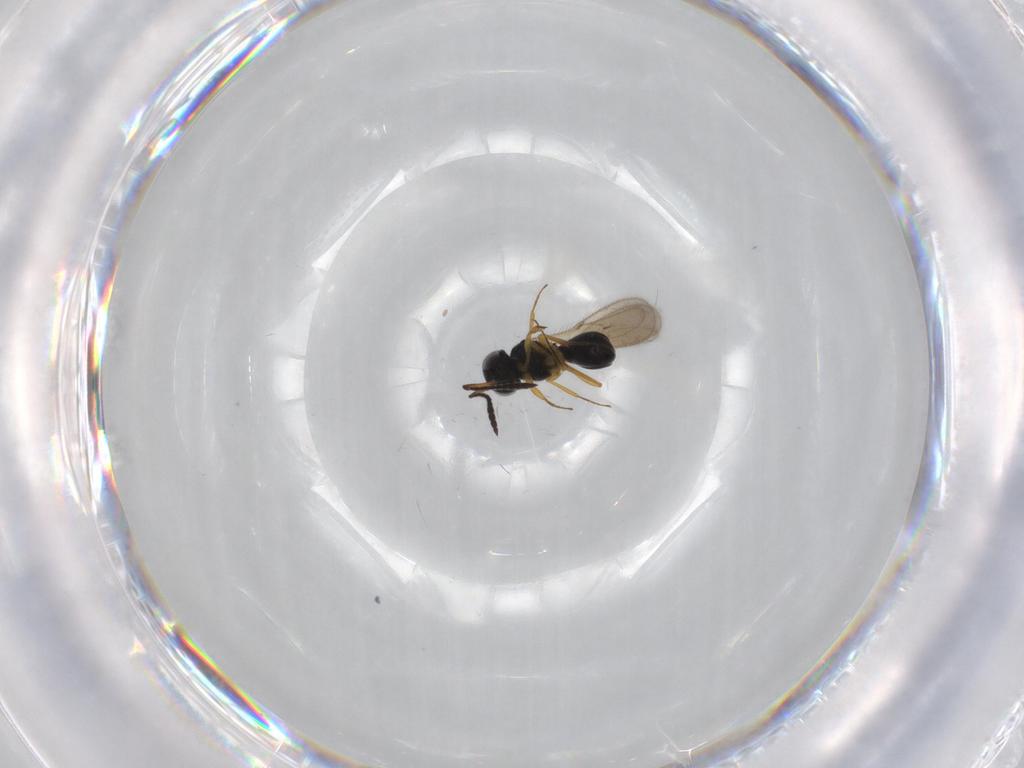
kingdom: Animalia
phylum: Arthropoda
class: Insecta
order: Hymenoptera
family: Scelionidae
